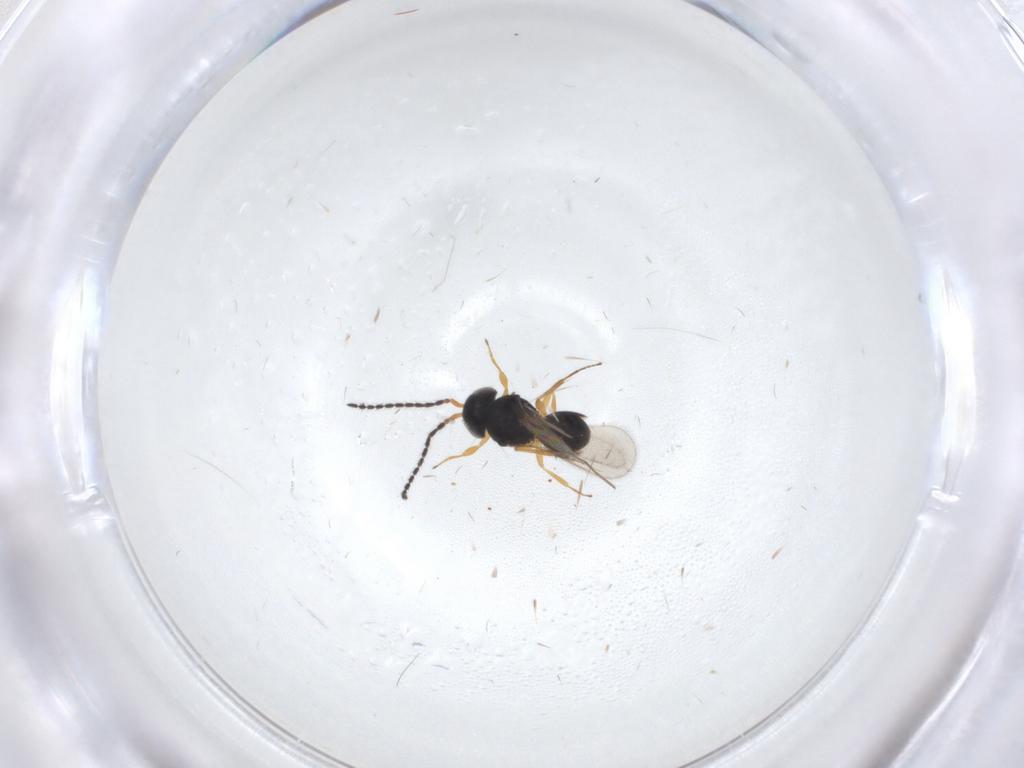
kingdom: Animalia
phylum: Arthropoda
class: Insecta
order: Hymenoptera
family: Scelionidae
